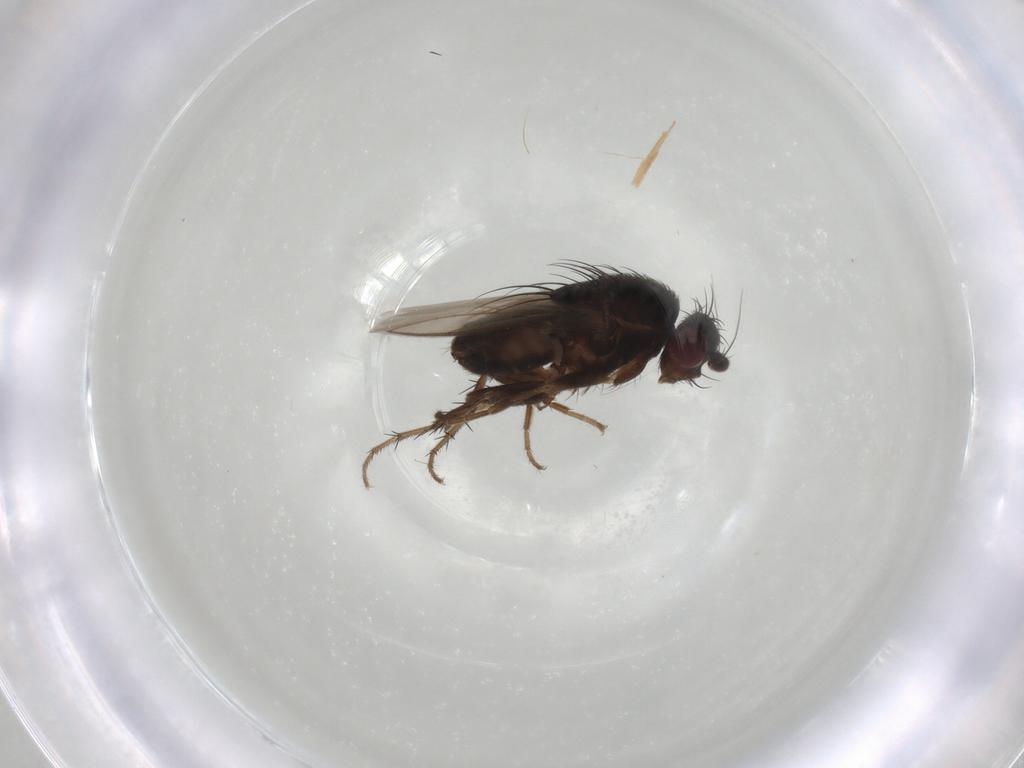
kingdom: Animalia
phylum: Arthropoda
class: Insecta
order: Diptera
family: Sphaeroceridae
